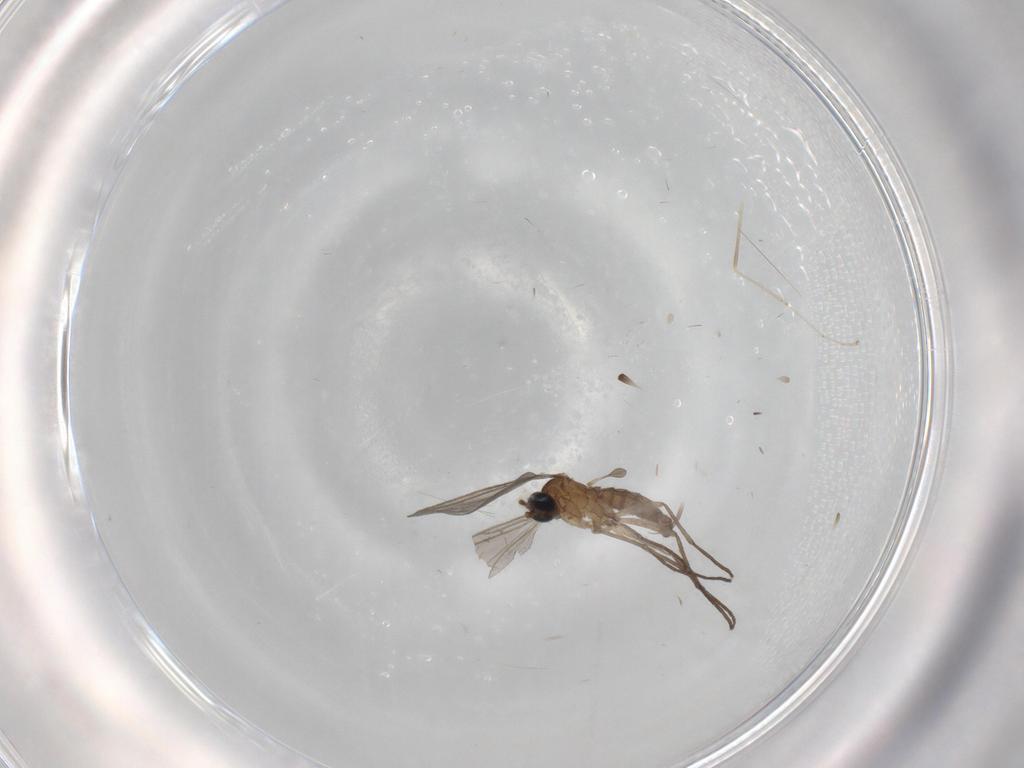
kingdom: Animalia
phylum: Arthropoda
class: Insecta
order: Diptera
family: Sciaridae
